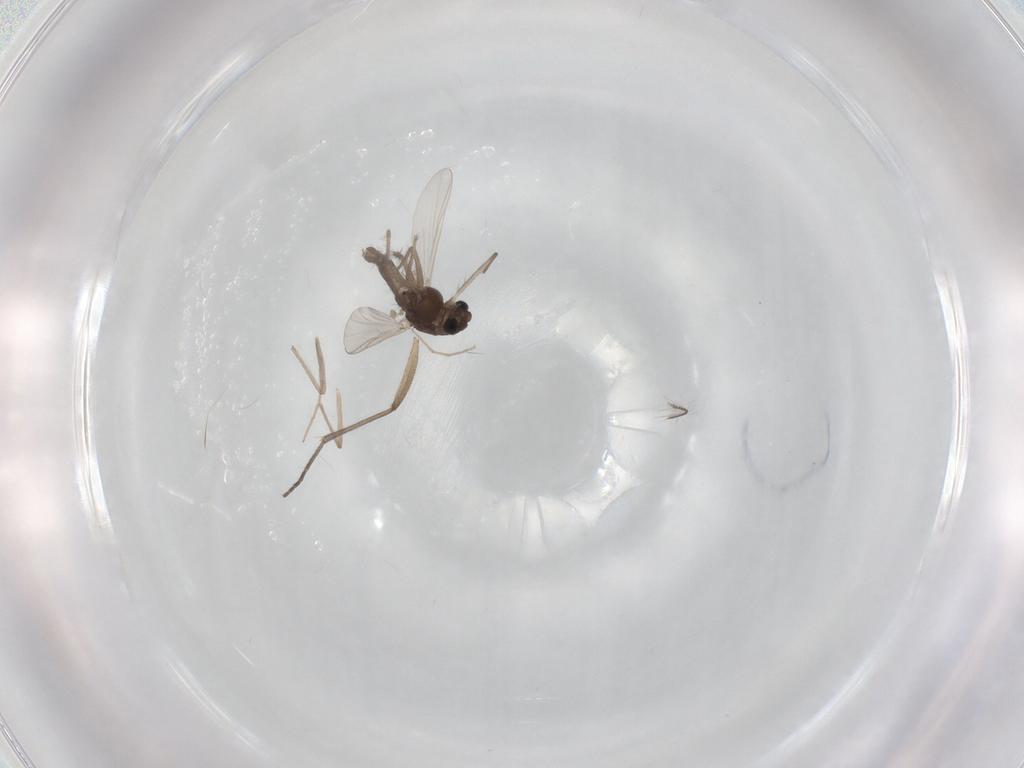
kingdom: Animalia
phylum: Arthropoda
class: Insecta
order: Diptera
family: Chironomidae
